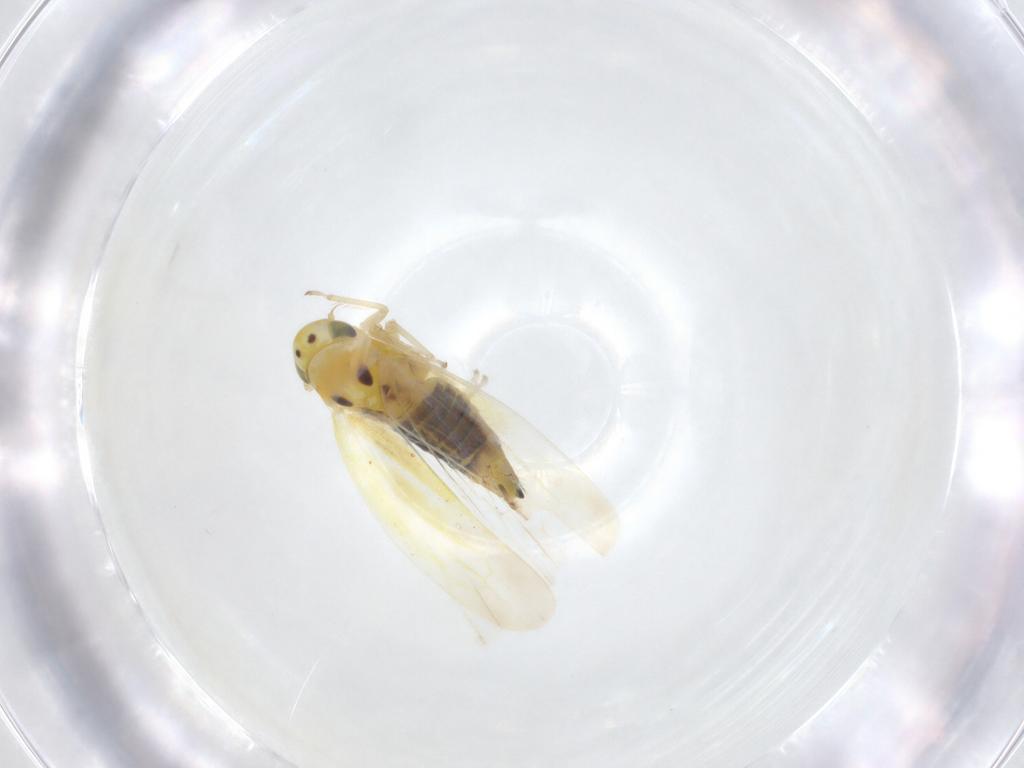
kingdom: Animalia
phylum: Arthropoda
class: Insecta
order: Hemiptera
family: Cicadellidae
